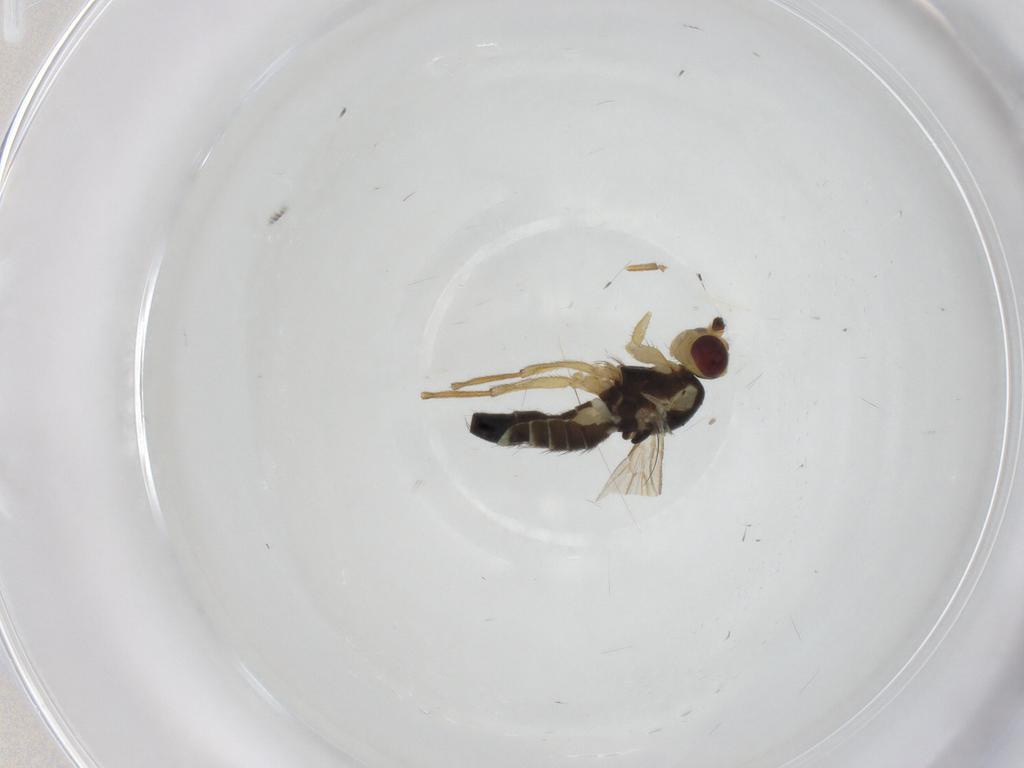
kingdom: Animalia
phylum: Arthropoda
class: Insecta
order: Diptera
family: Agromyzidae
